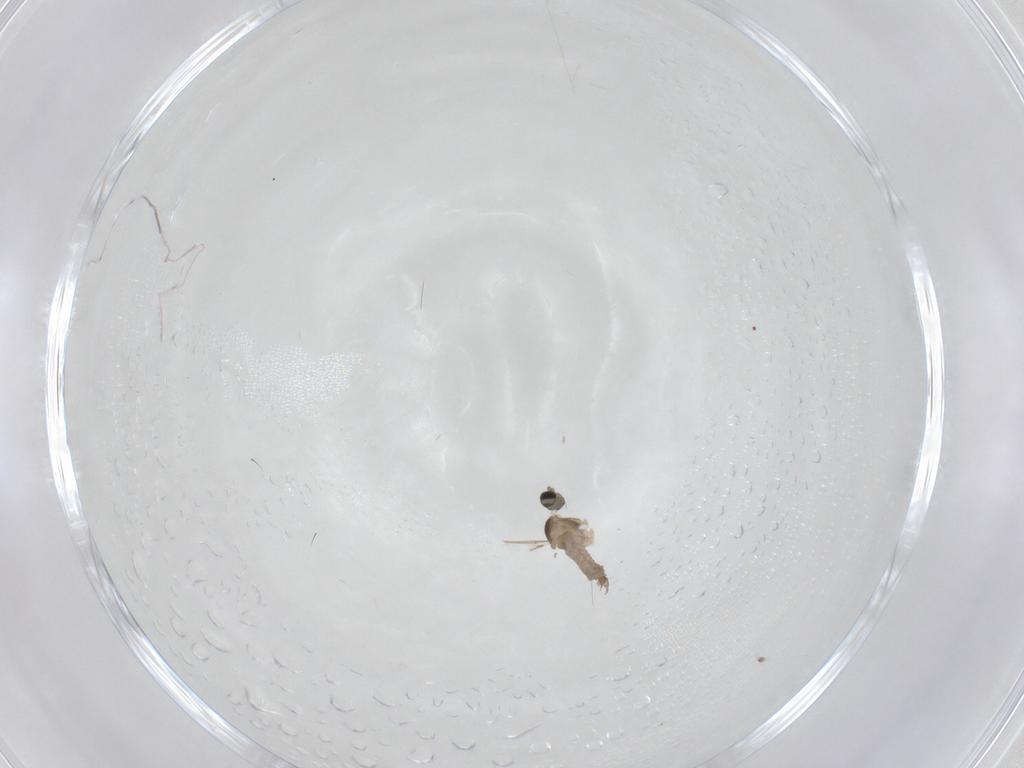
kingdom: Animalia
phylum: Arthropoda
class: Insecta
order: Diptera
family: Cecidomyiidae
